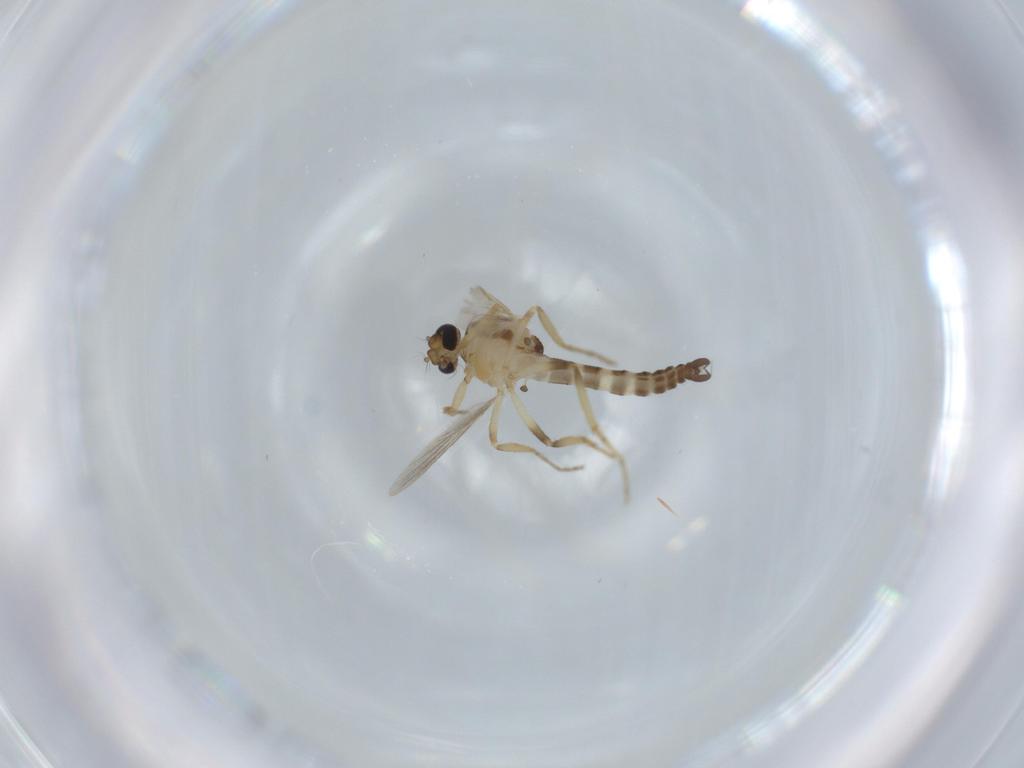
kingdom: Animalia
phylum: Arthropoda
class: Insecta
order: Diptera
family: Ceratopogonidae
